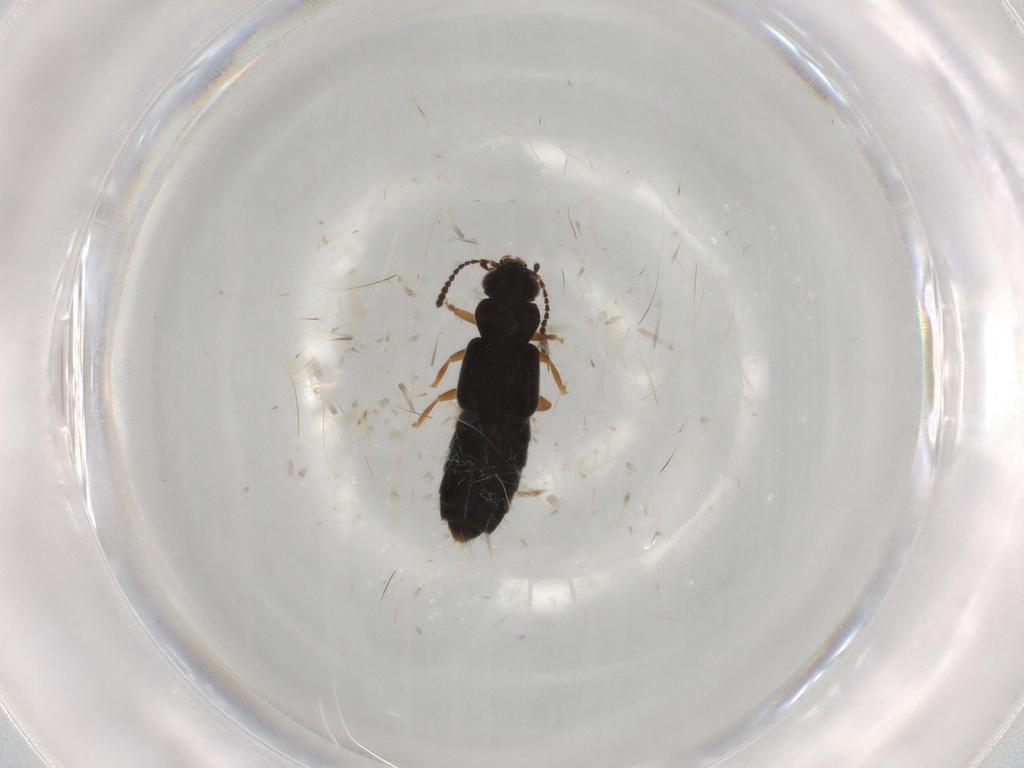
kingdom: Animalia
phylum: Arthropoda
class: Insecta
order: Coleoptera
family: Staphylinidae
